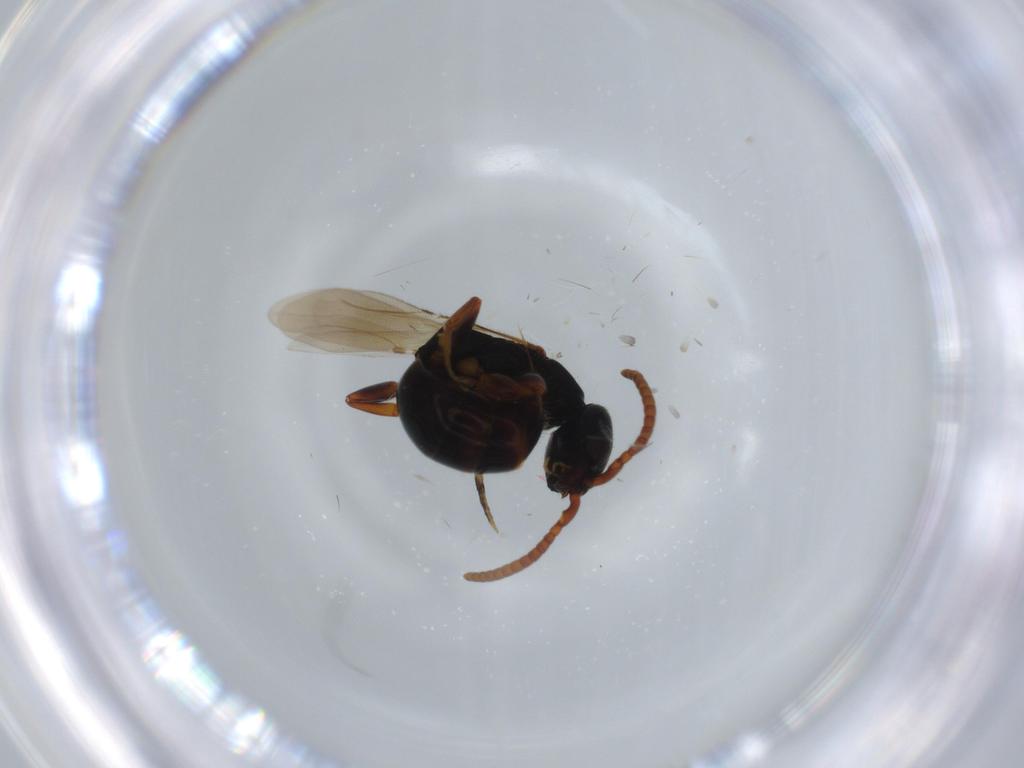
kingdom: Animalia
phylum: Arthropoda
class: Insecta
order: Hymenoptera
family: Bethylidae
